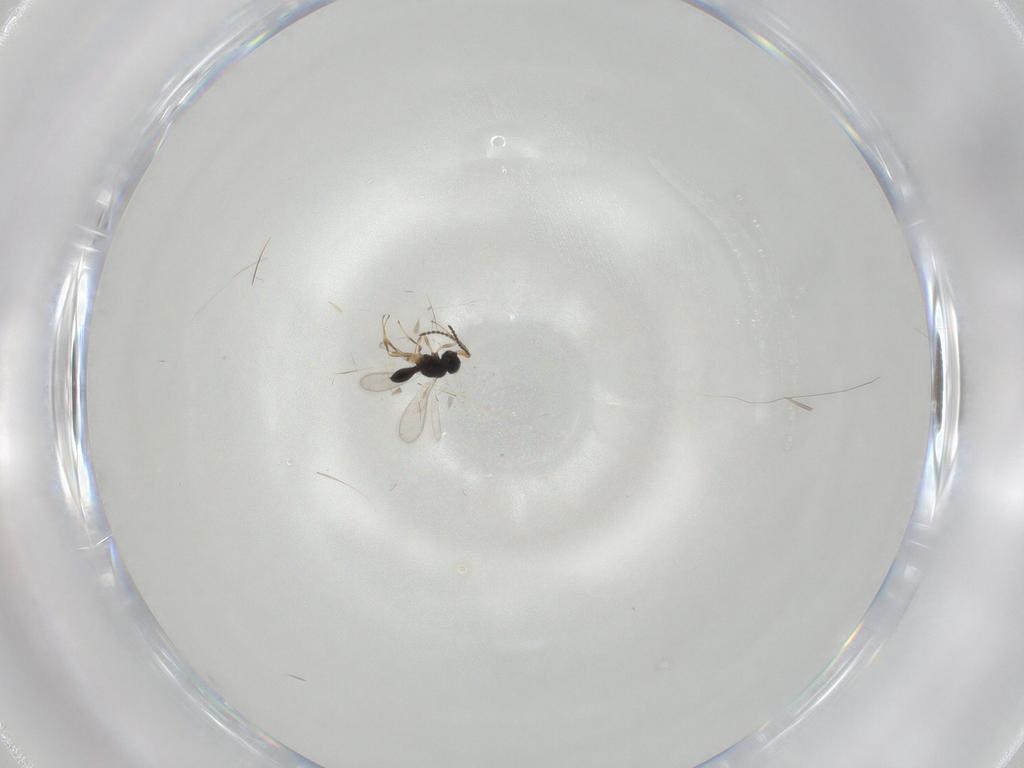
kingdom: Animalia
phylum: Arthropoda
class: Insecta
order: Hymenoptera
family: Scelionidae
